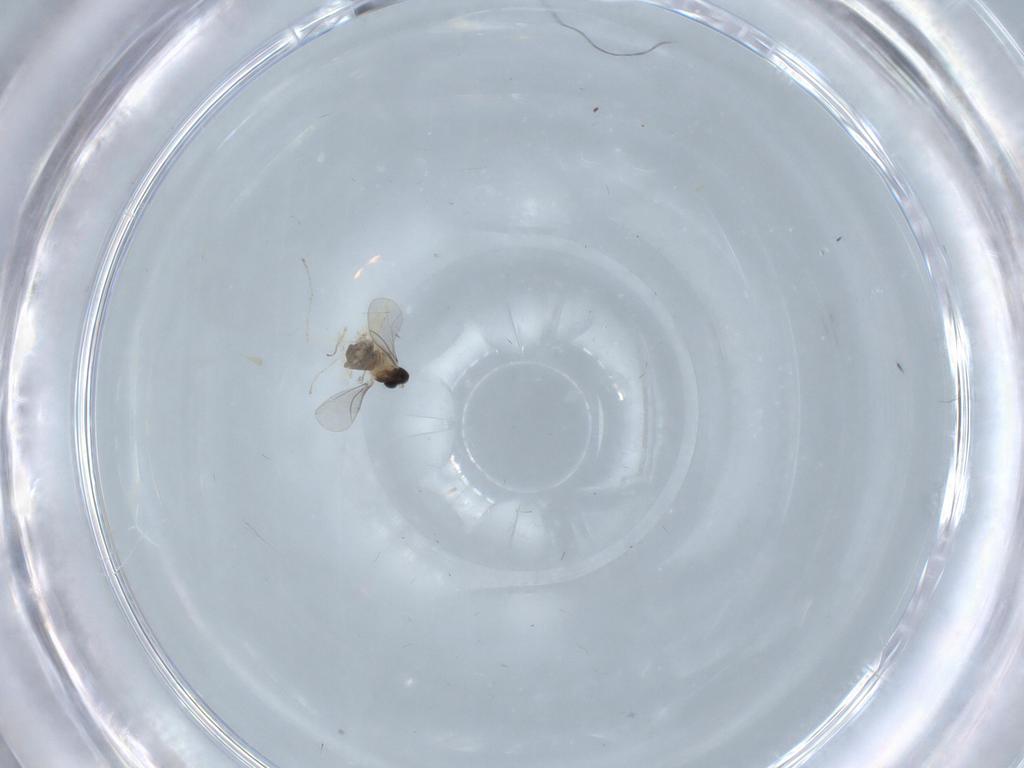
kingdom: Animalia
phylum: Arthropoda
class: Insecta
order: Diptera
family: Cecidomyiidae
